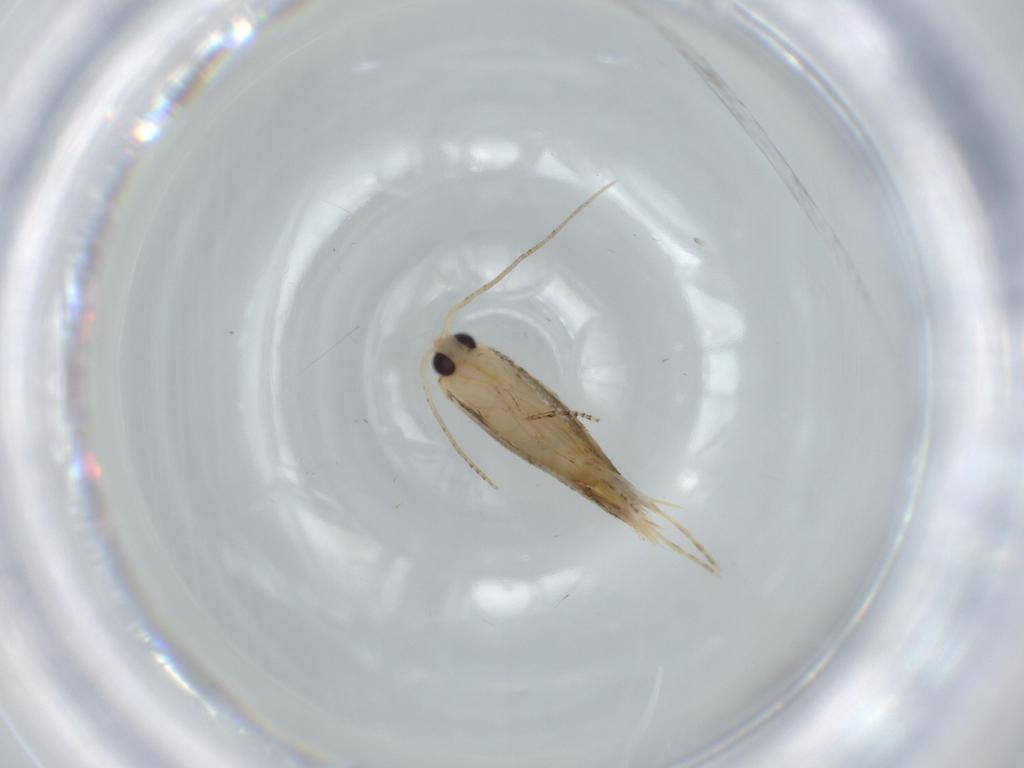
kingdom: Animalia
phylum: Arthropoda
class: Insecta
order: Lepidoptera
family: Bucculatricidae
